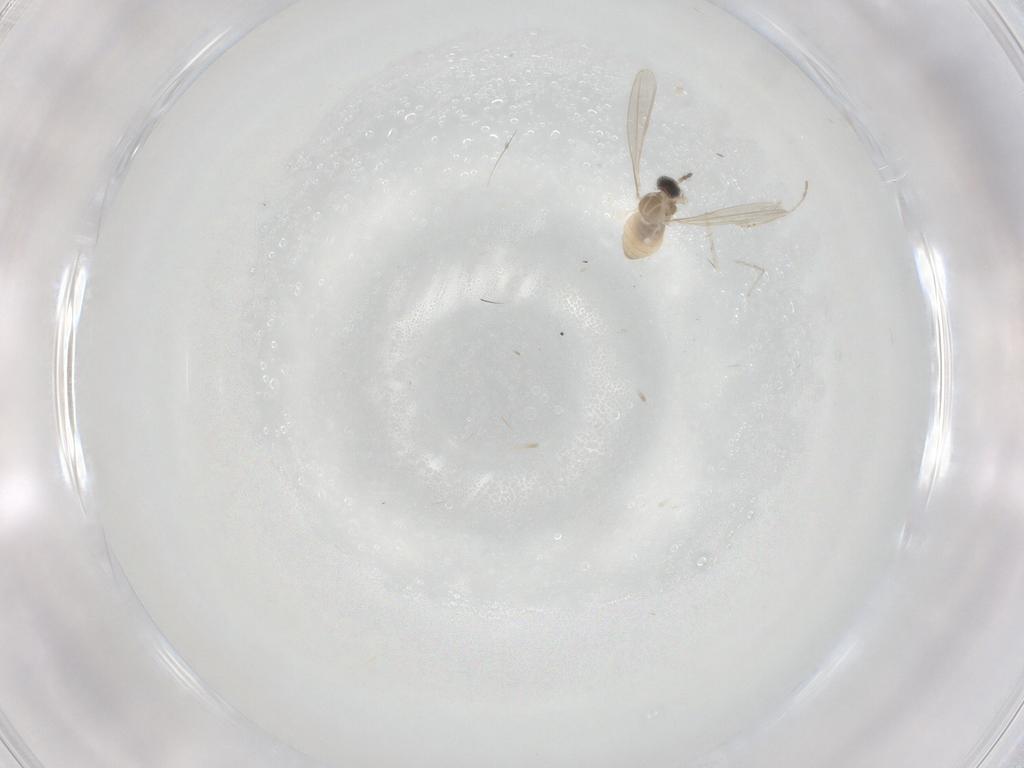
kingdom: Animalia
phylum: Arthropoda
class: Insecta
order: Diptera
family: Cecidomyiidae
